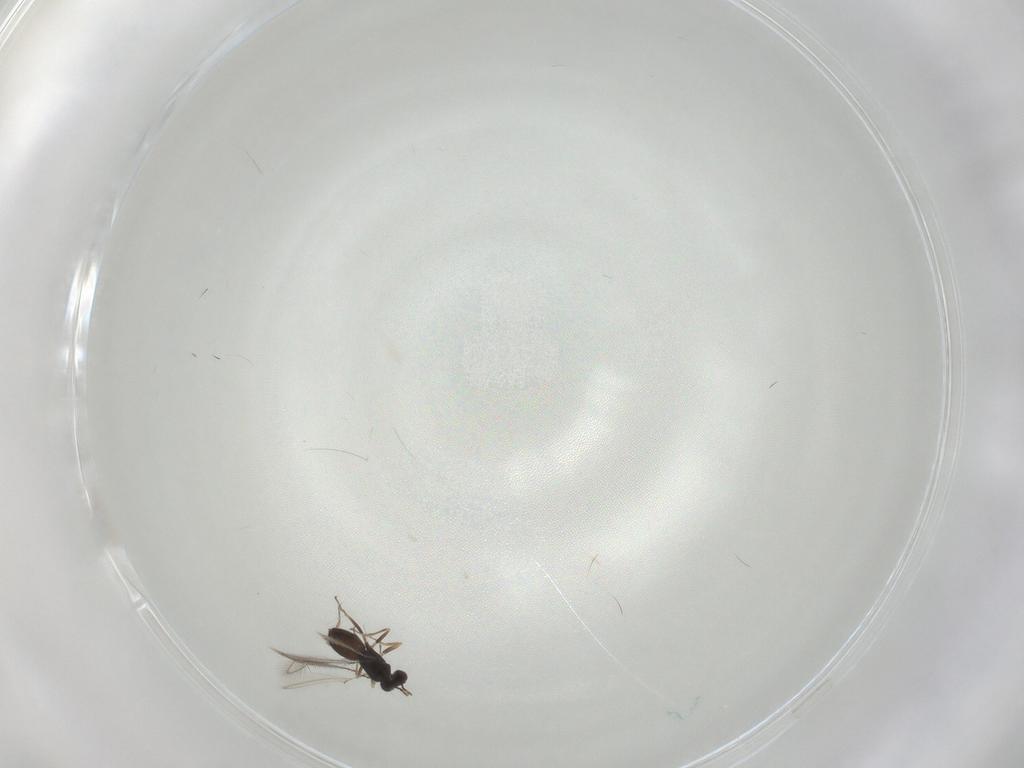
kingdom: Animalia
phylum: Arthropoda
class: Insecta
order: Hymenoptera
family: Mymaridae
